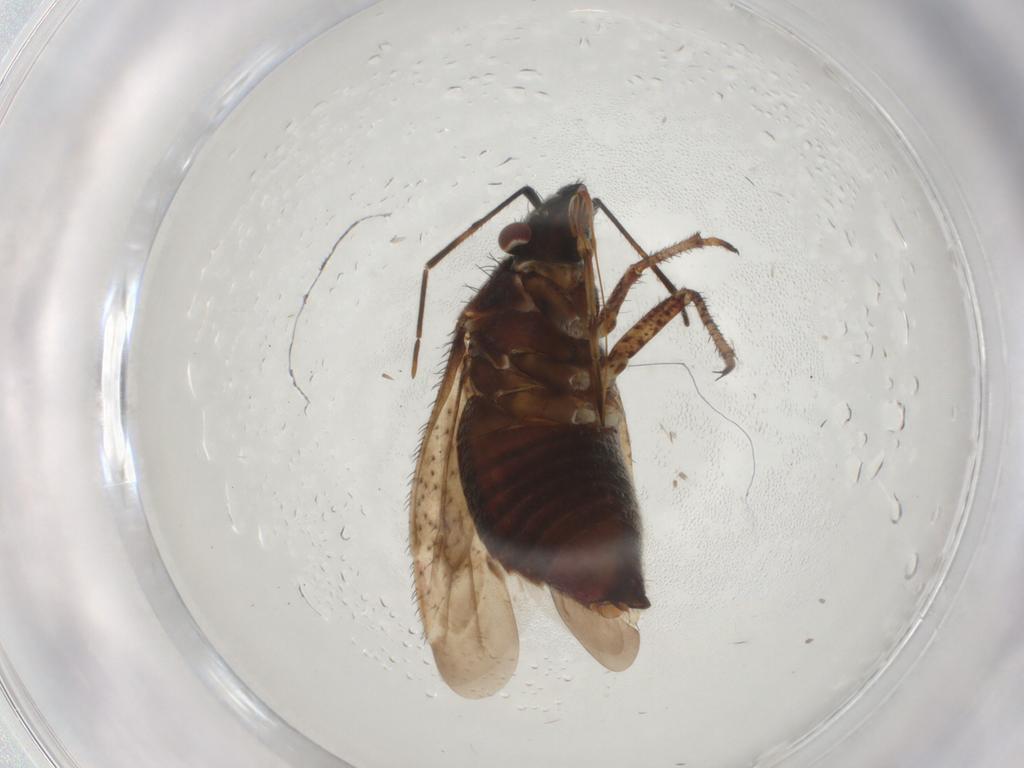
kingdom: Animalia
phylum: Arthropoda
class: Insecta
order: Hemiptera
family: Miridae
